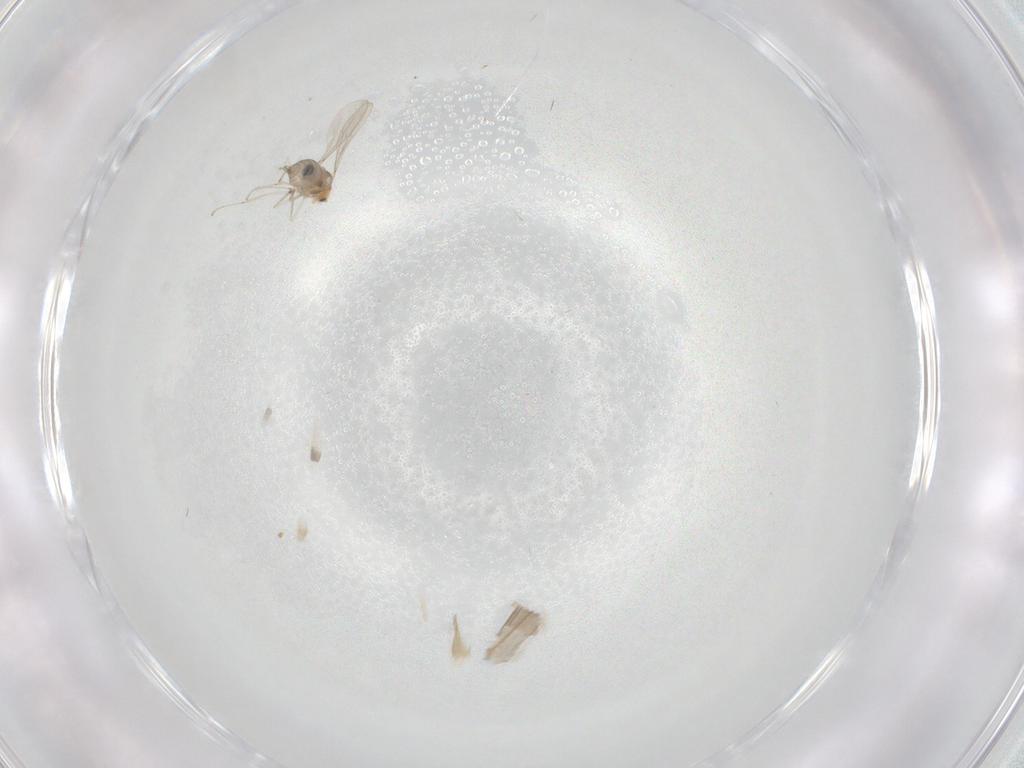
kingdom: Animalia
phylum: Arthropoda
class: Insecta
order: Diptera
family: Cecidomyiidae
